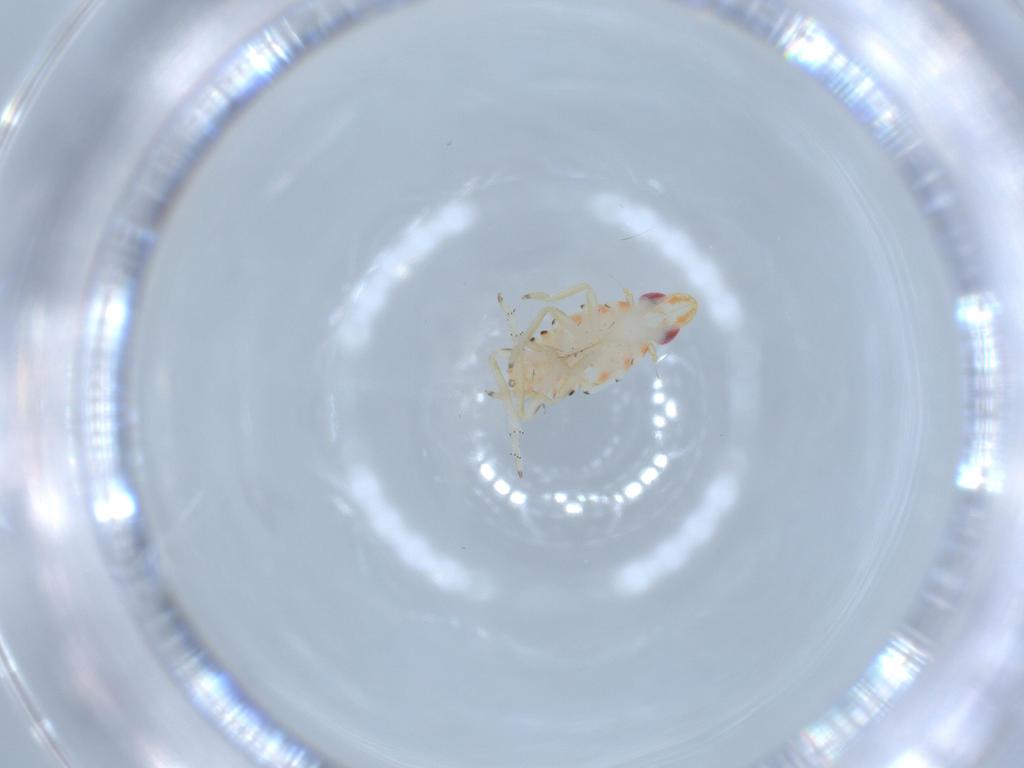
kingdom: Animalia
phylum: Arthropoda
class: Insecta
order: Hemiptera
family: Tropiduchidae
